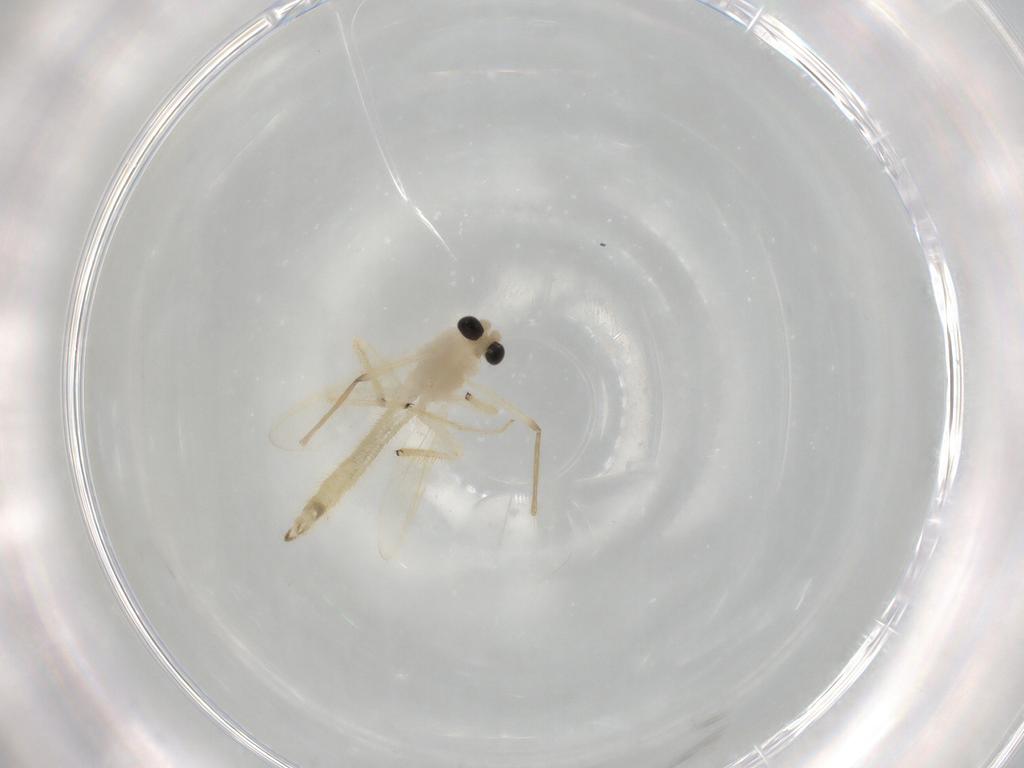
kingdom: Animalia
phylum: Arthropoda
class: Insecta
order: Diptera
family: Chironomidae
